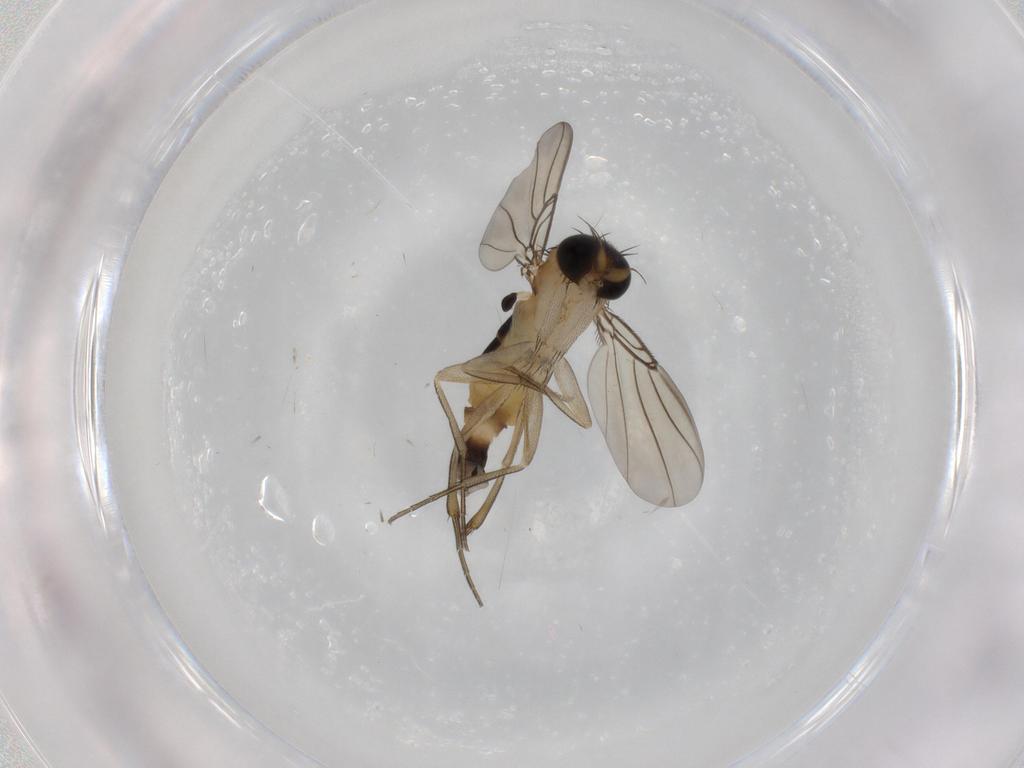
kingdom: Animalia
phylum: Arthropoda
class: Insecta
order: Diptera
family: Phoridae
